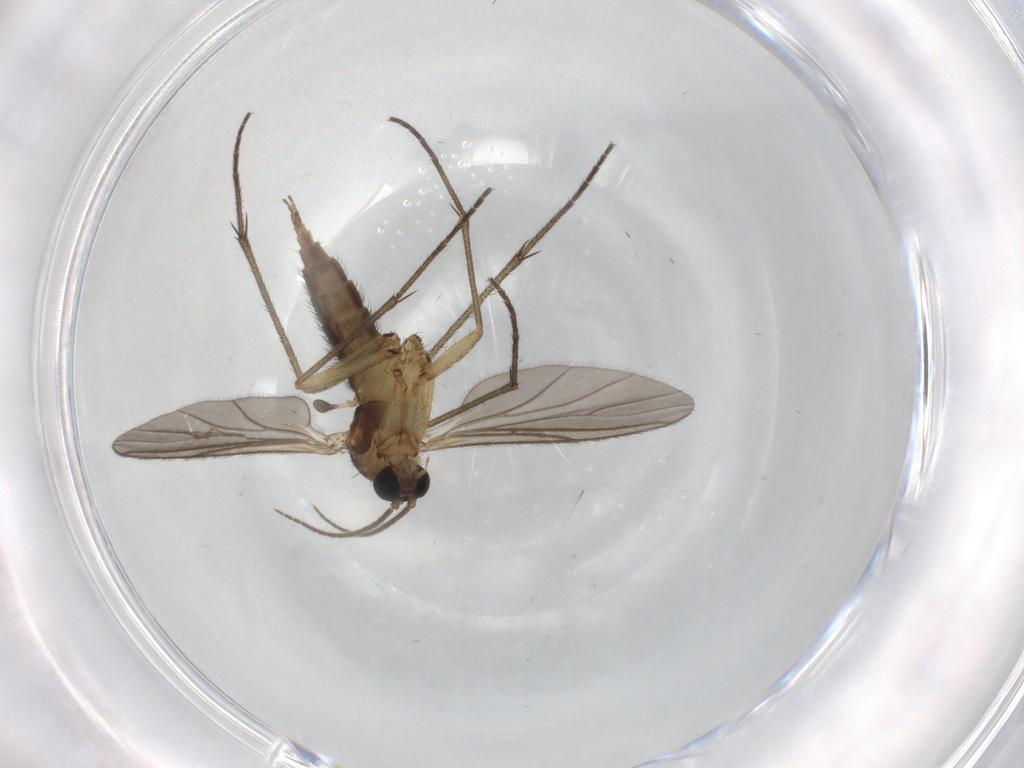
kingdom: Animalia
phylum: Arthropoda
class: Insecta
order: Diptera
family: Sciaridae
